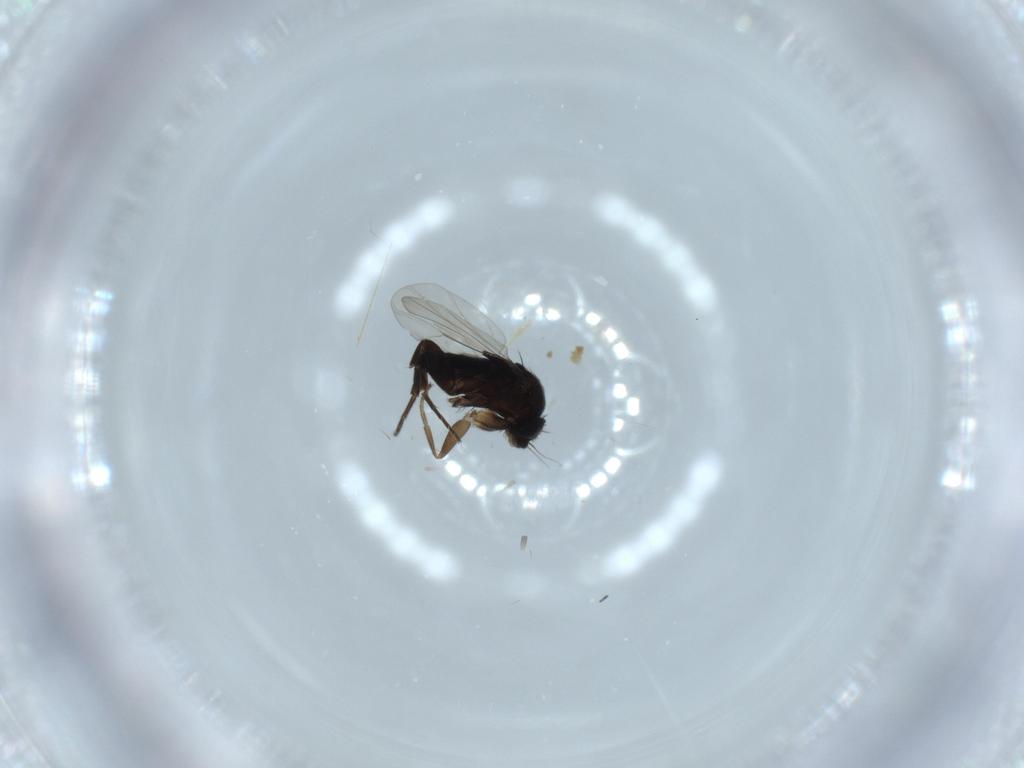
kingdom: Animalia
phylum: Arthropoda
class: Insecta
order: Diptera
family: Phoridae
